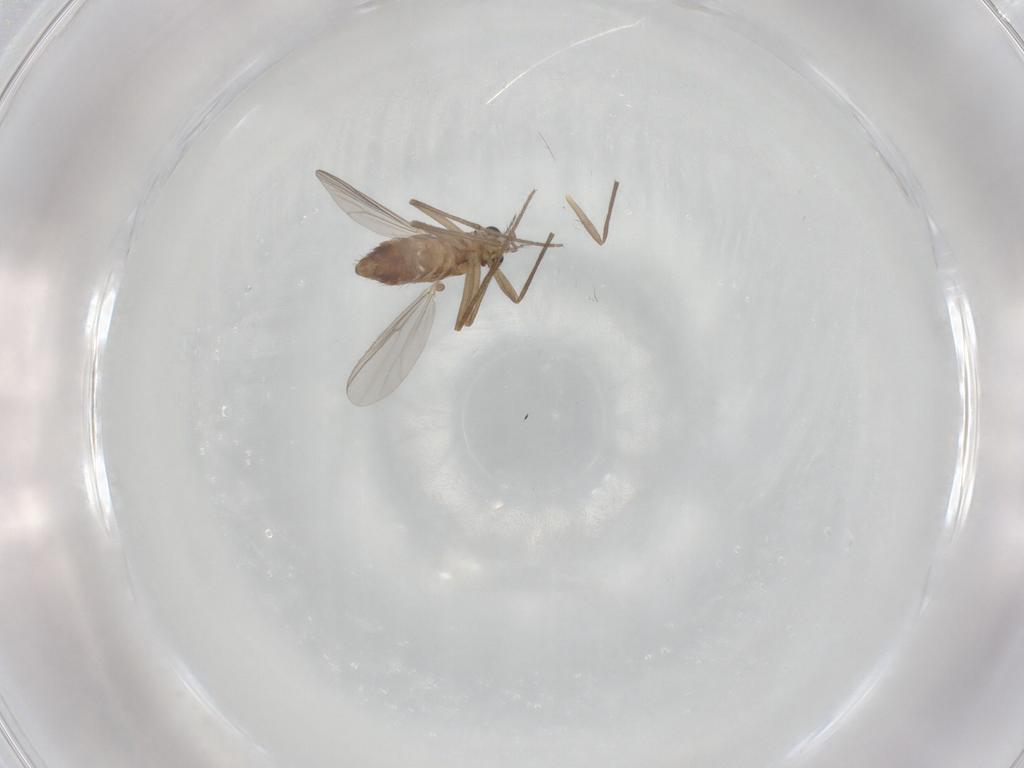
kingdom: Animalia
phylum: Arthropoda
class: Insecta
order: Diptera
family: Chironomidae
